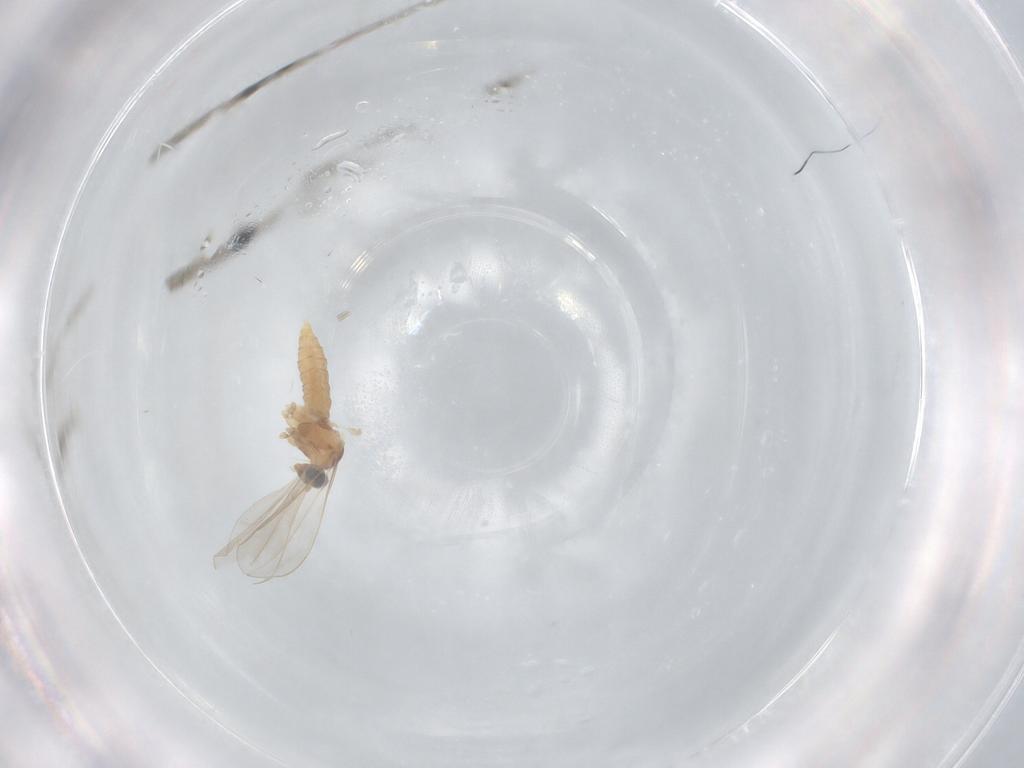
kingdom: Animalia
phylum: Arthropoda
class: Insecta
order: Diptera
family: Cecidomyiidae
